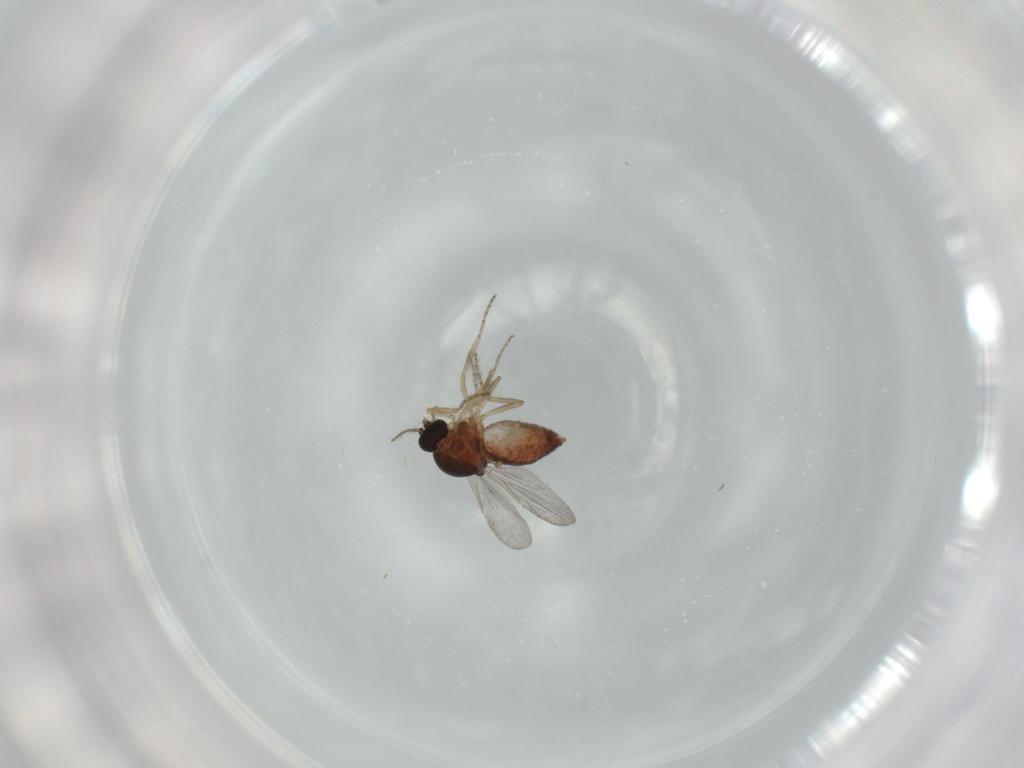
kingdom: Animalia
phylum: Arthropoda
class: Insecta
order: Diptera
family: Ceratopogonidae
